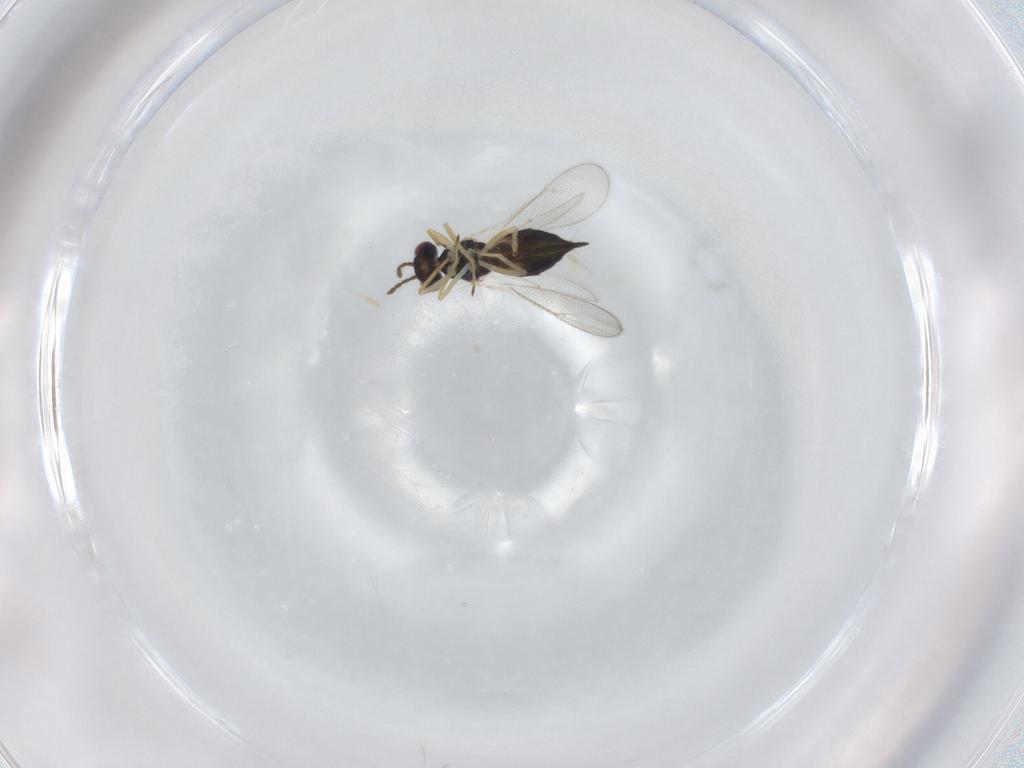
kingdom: Animalia
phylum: Arthropoda
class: Insecta
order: Hymenoptera
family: Eulophidae
